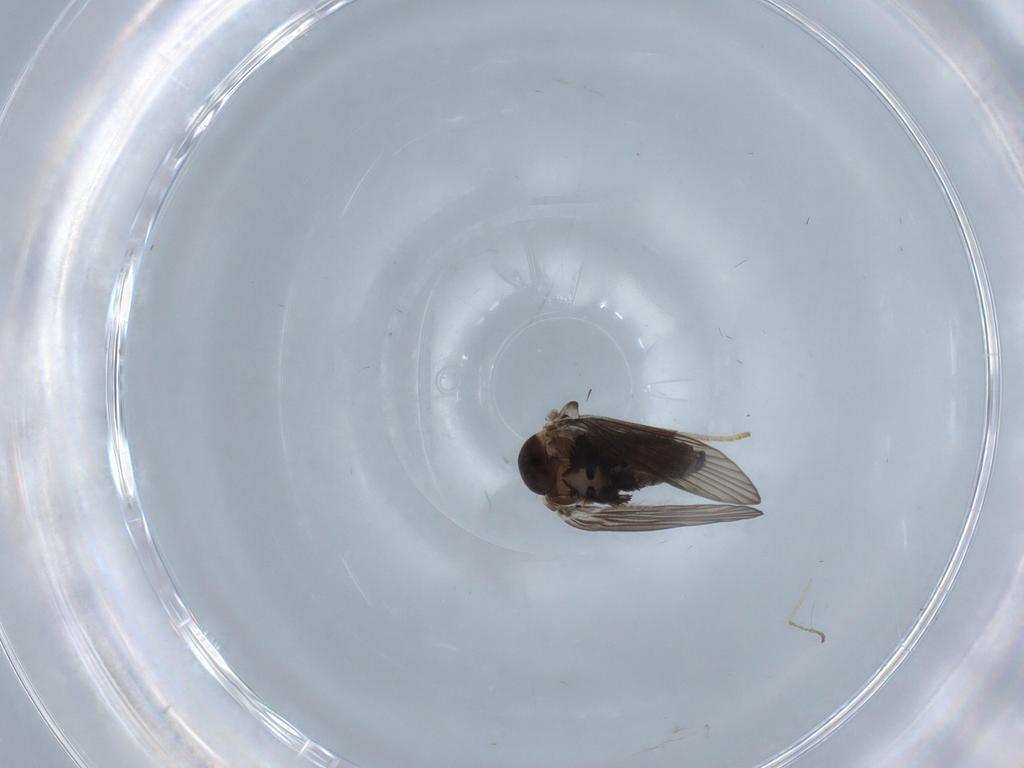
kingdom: Animalia
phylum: Arthropoda
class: Insecta
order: Diptera
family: Psychodidae
